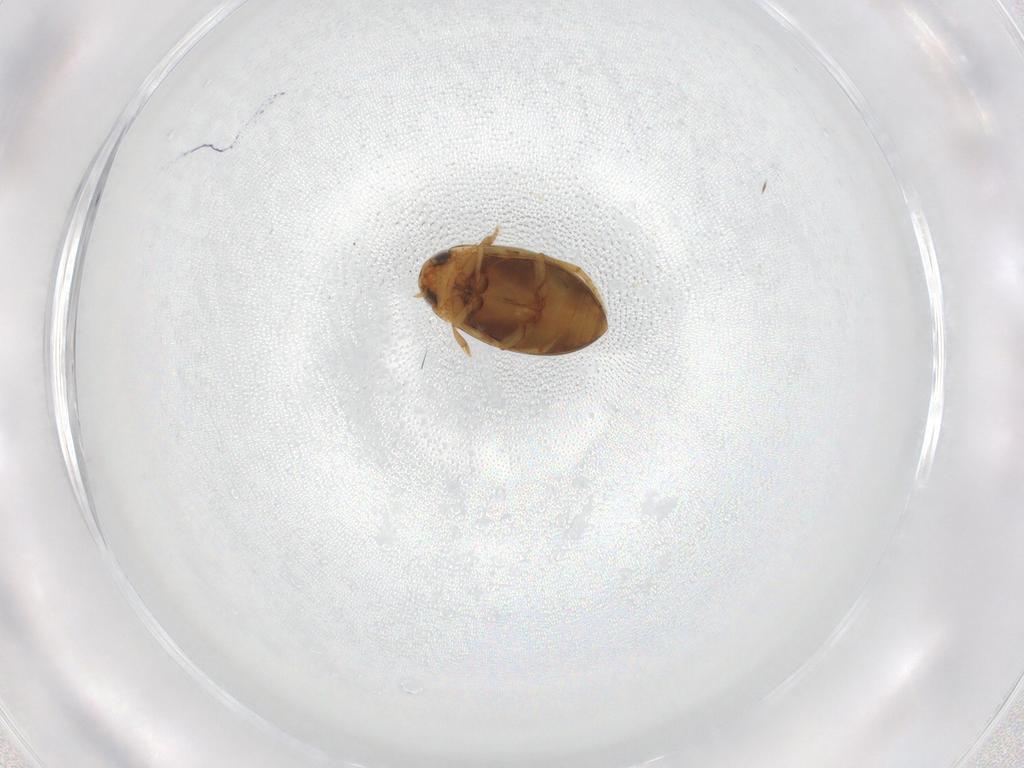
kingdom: Animalia
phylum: Arthropoda
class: Insecta
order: Coleoptera
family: Dytiscidae
